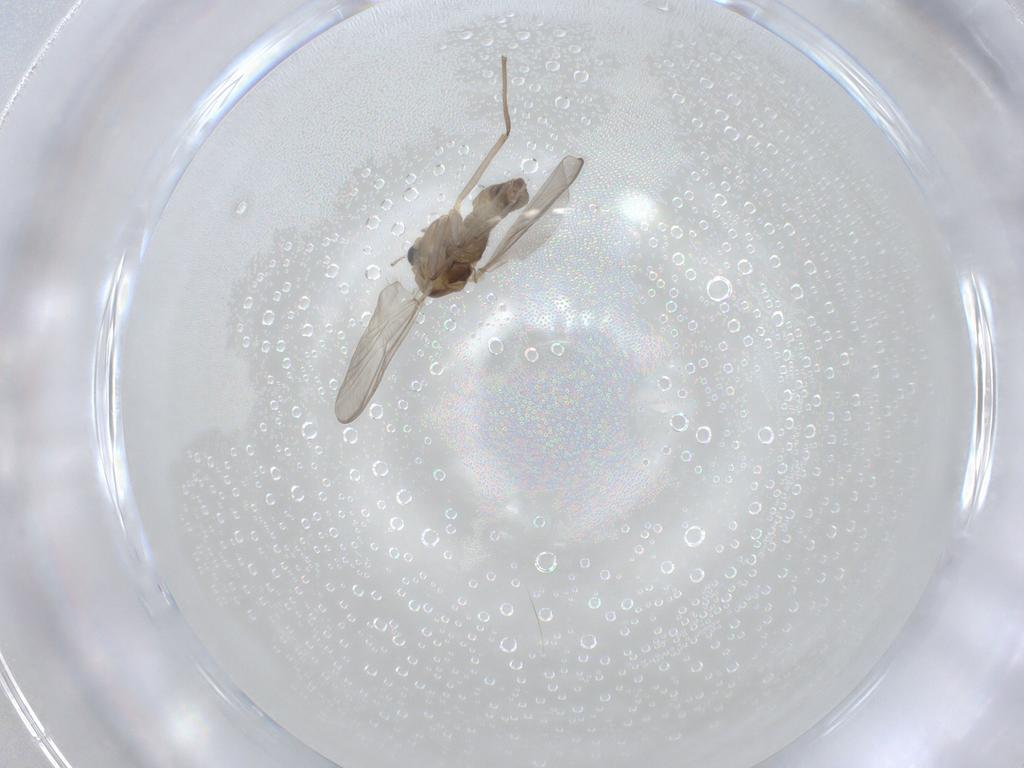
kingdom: Animalia
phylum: Arthropoda
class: Insecta
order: Diptera
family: Chironomidae
